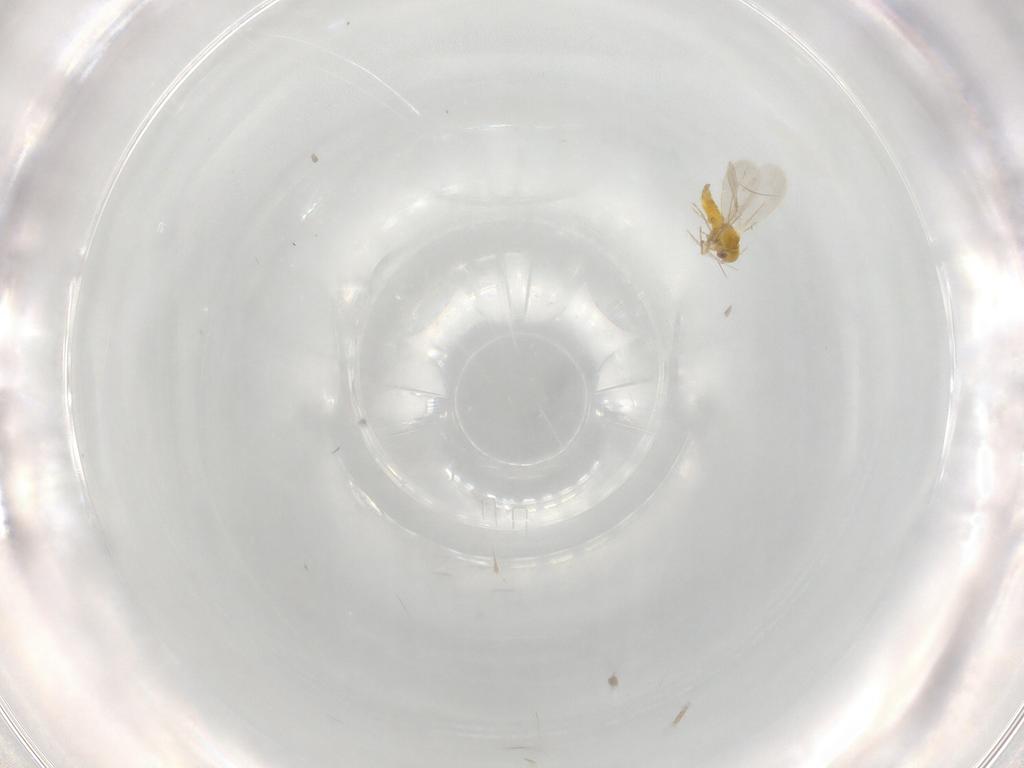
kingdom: Animalia
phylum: Arthropoda
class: Insecta
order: Hemiptera
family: Aleyrodidae
